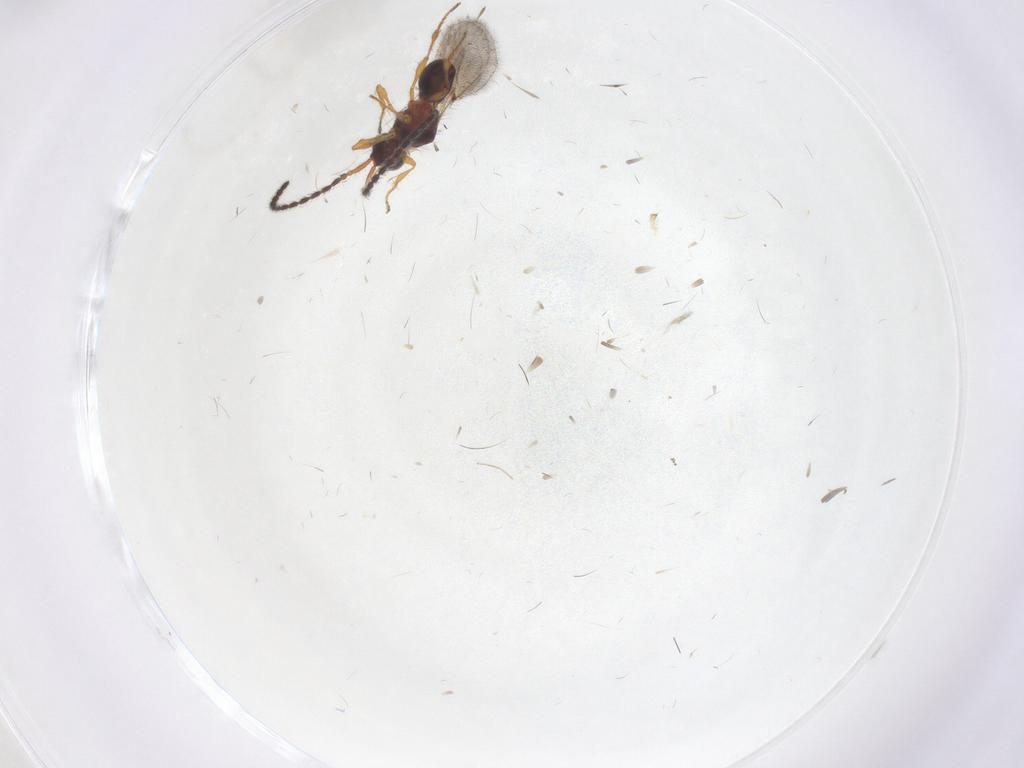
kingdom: Animalia
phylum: Arthropoda
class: Insecta
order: Hymenoptera
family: Diapriidae
